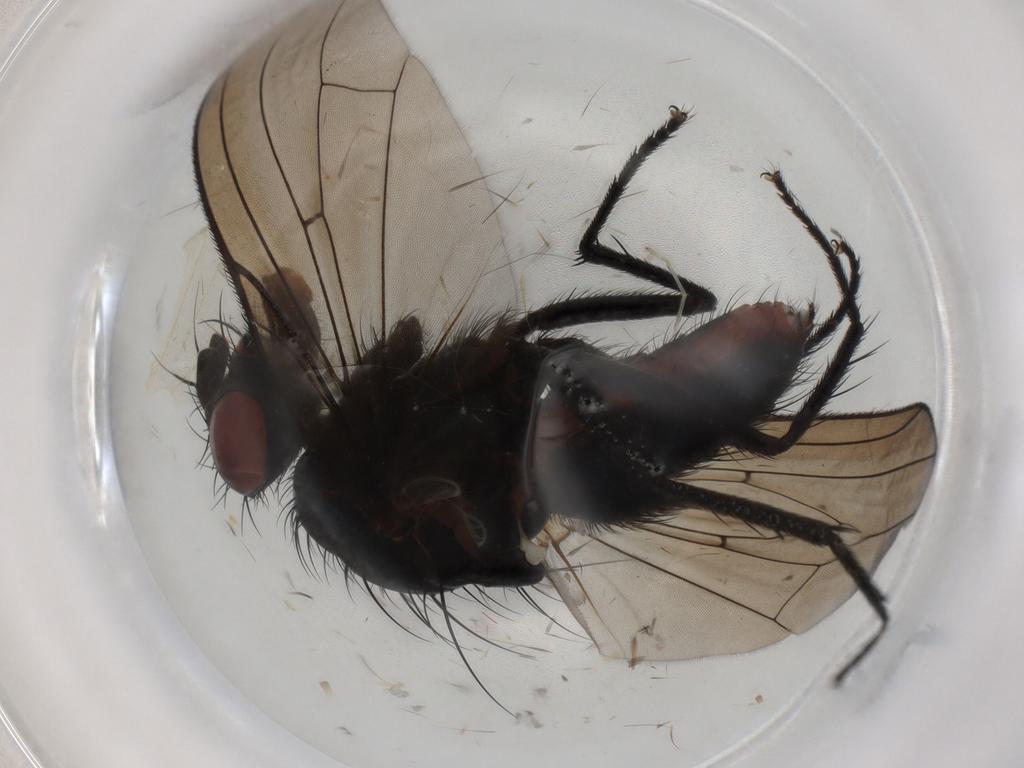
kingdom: Animalia
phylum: Arthropoda
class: Insecta
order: Diptera
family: Anthomyiidae
